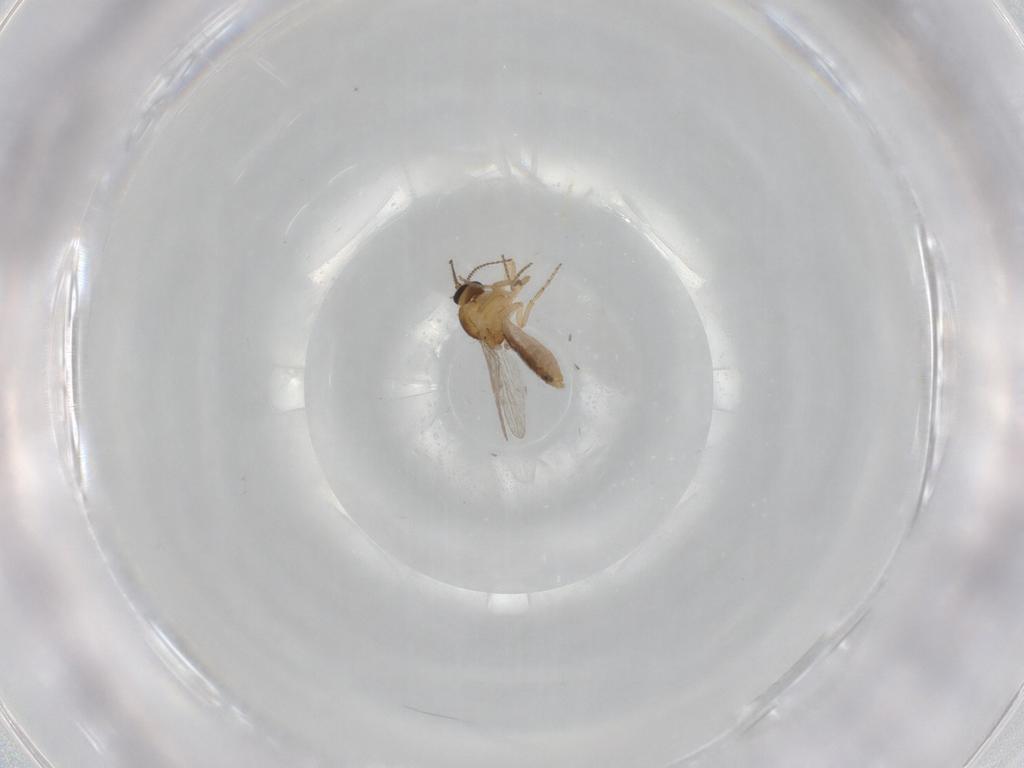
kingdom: Animalia
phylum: Arthropoda
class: Insecta
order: Diptera
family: Ceratopogonidae
